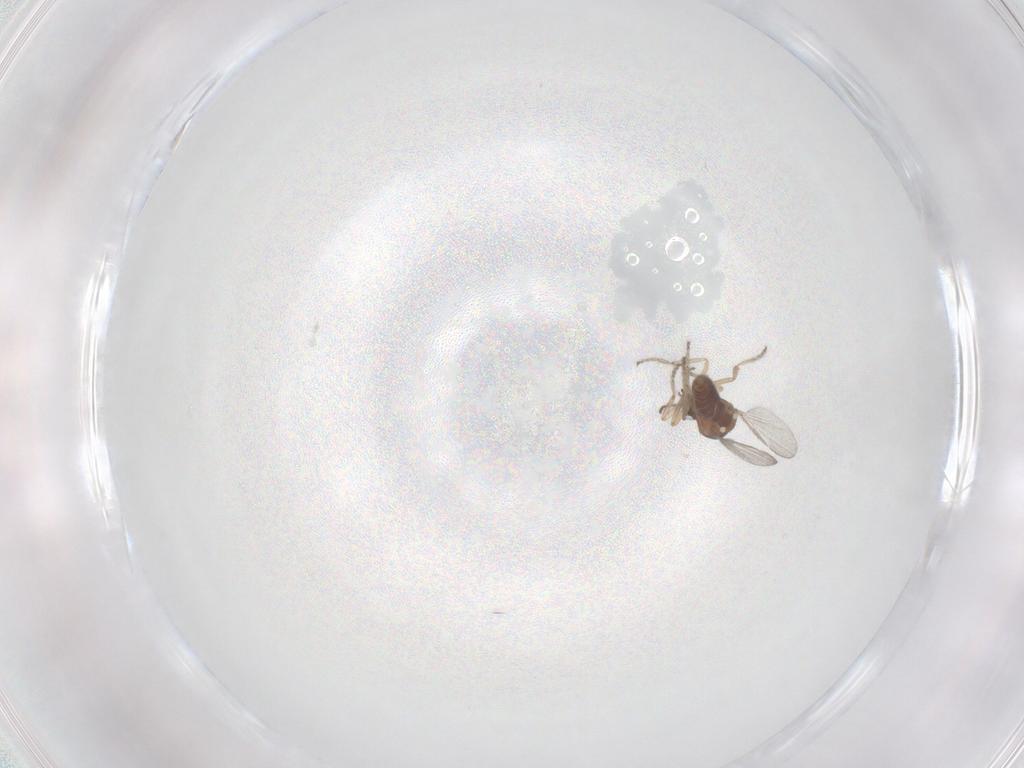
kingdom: Animalia
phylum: Arthropoda
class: Insecta
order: Diptera
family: Ceratopogonidae
